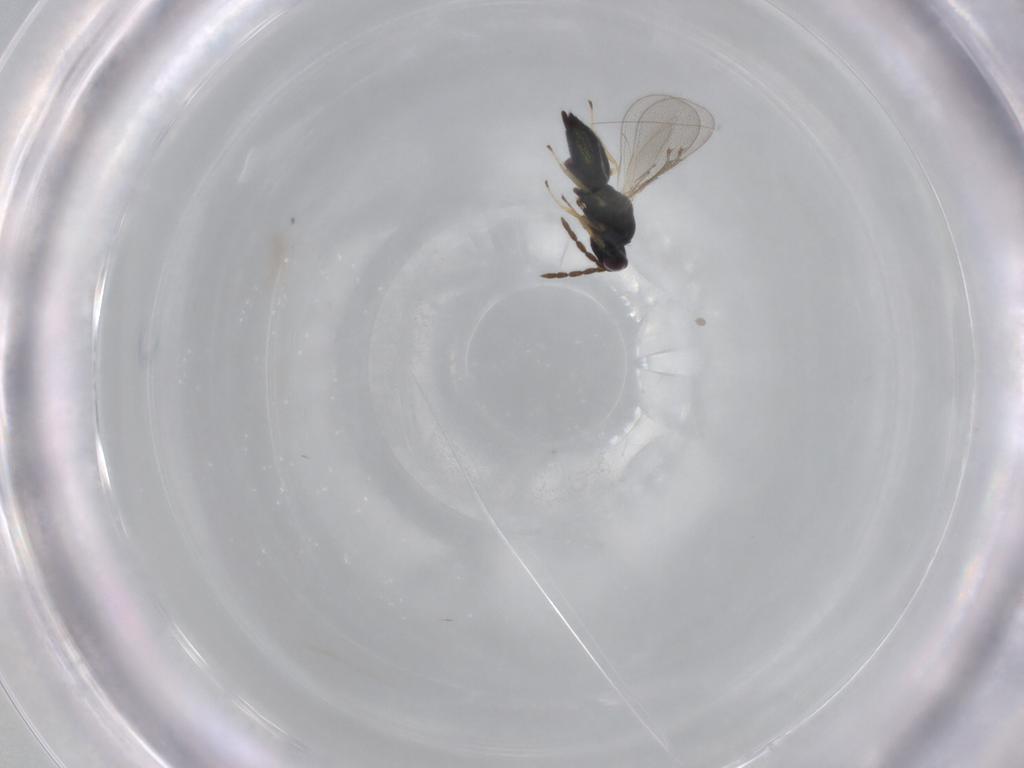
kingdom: Animalia
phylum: Arthropoda
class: Insecta
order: Hymenoptera
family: Eulophidae
